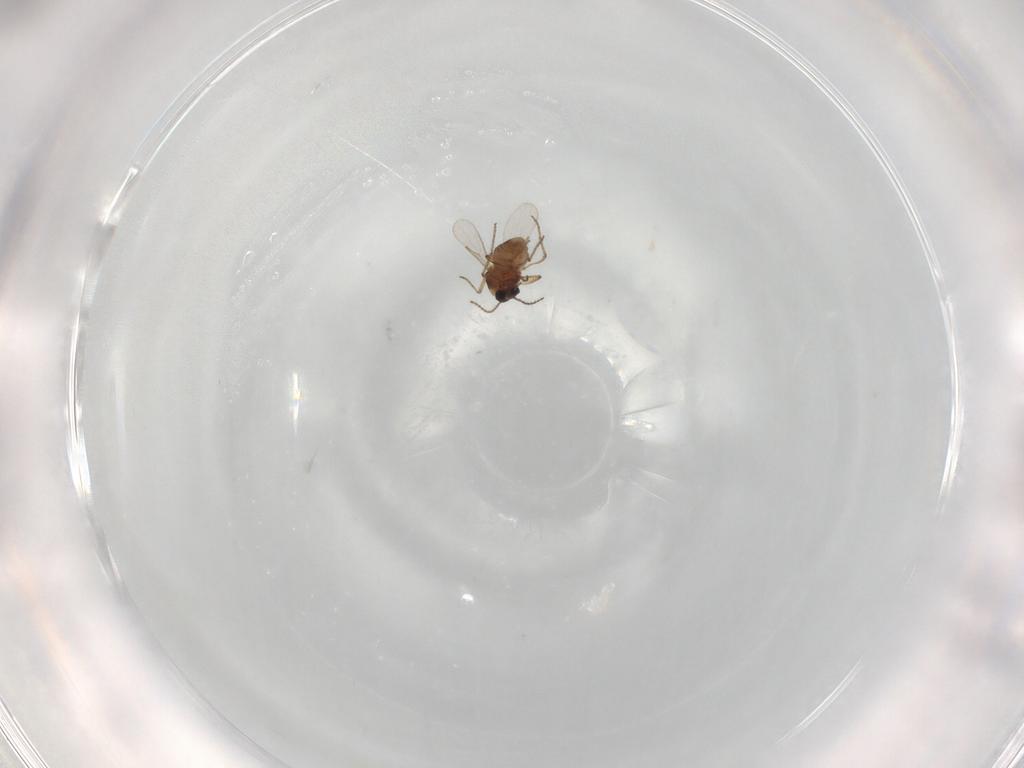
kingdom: Animalia
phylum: Arthropoda
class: Insecta
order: Diptera
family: Ceratopogonidae
